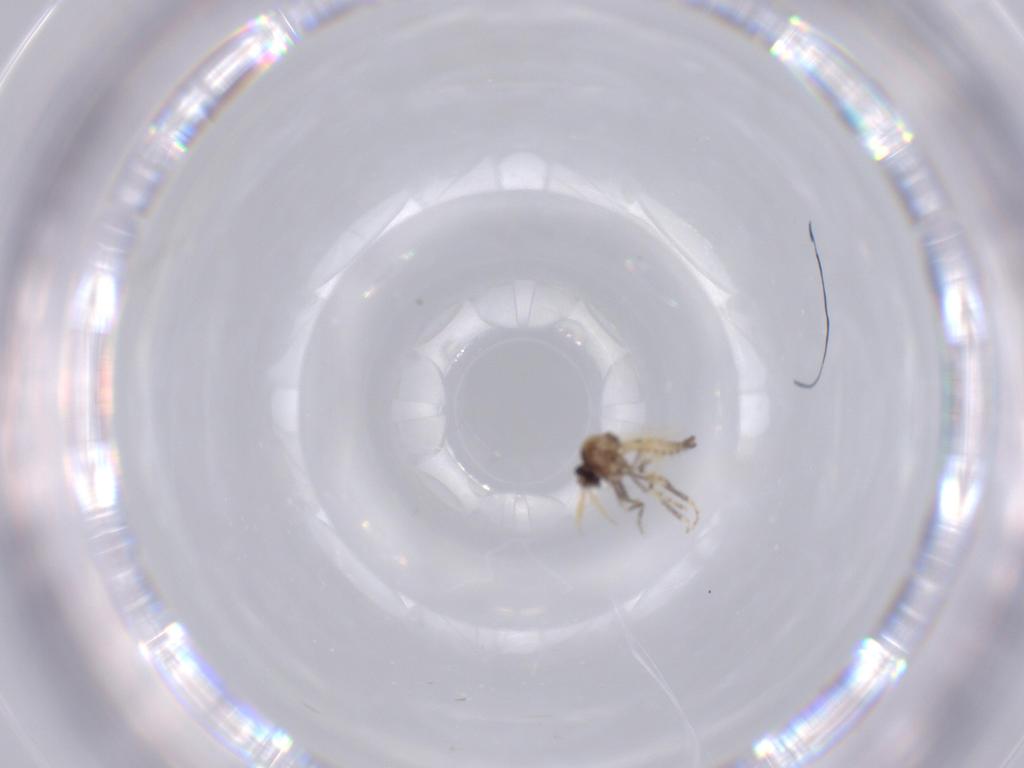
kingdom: Animalia
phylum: Arthropoda
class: Insecta
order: Diptera
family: Ceratopogonidae
